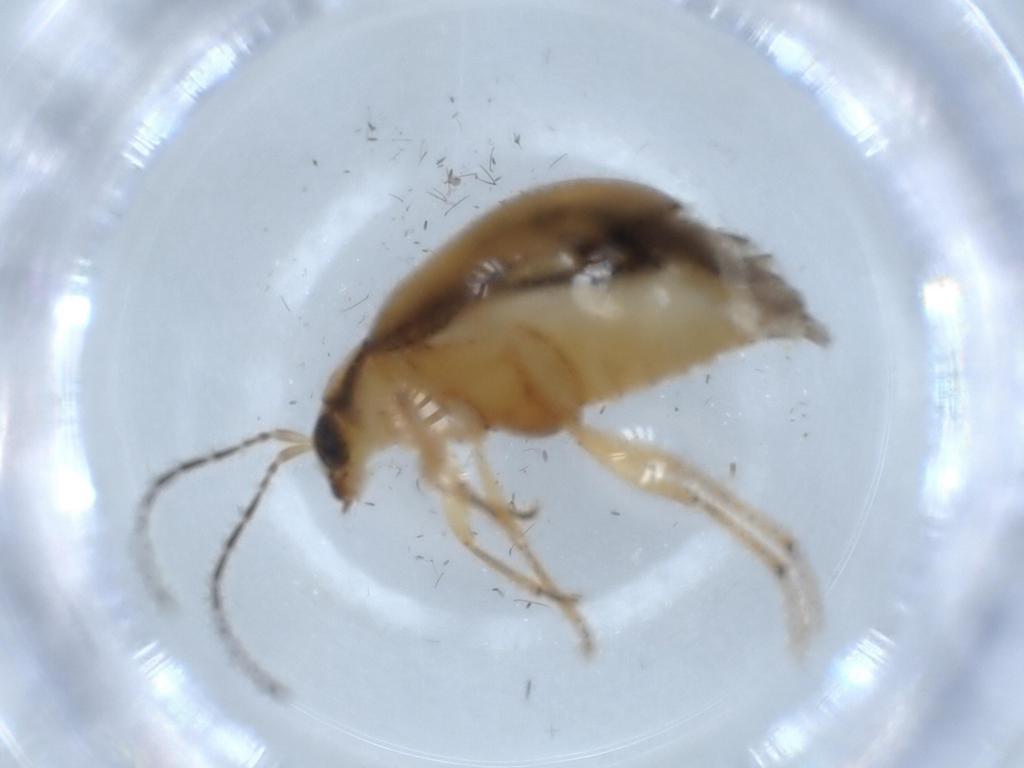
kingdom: Animalia
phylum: Arthropoda
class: Insecta
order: Coleoptera
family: Chrysomelidae
